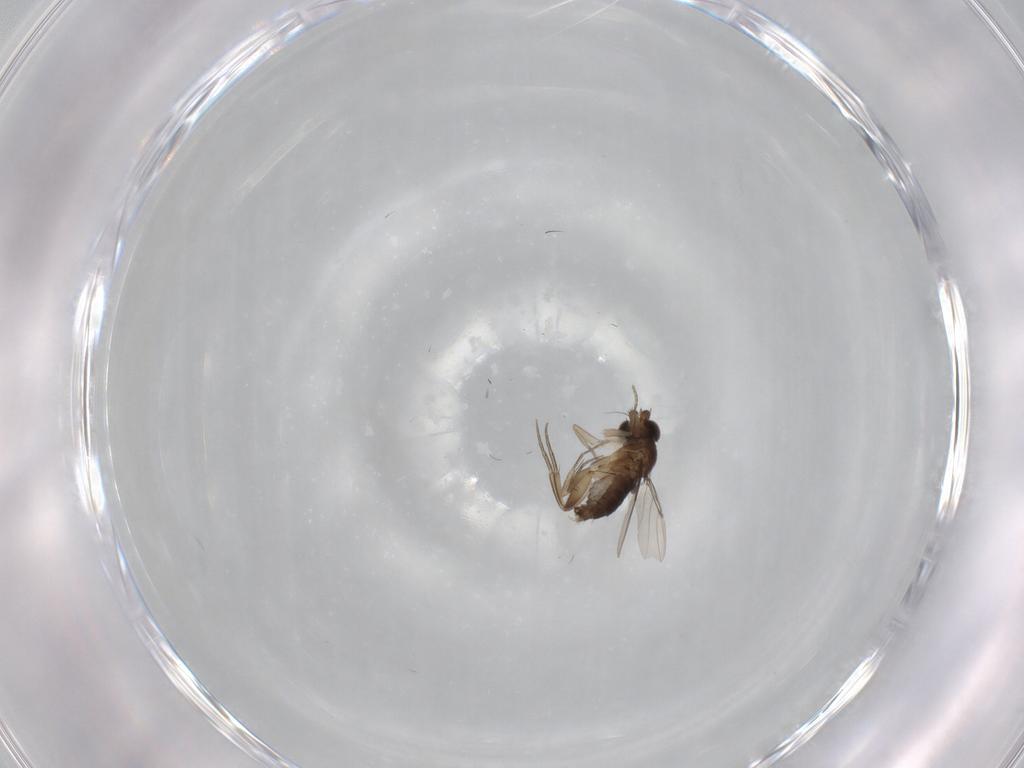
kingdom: Animalia
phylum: Arthropoda
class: Insecta
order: Diptera
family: Phoridae
